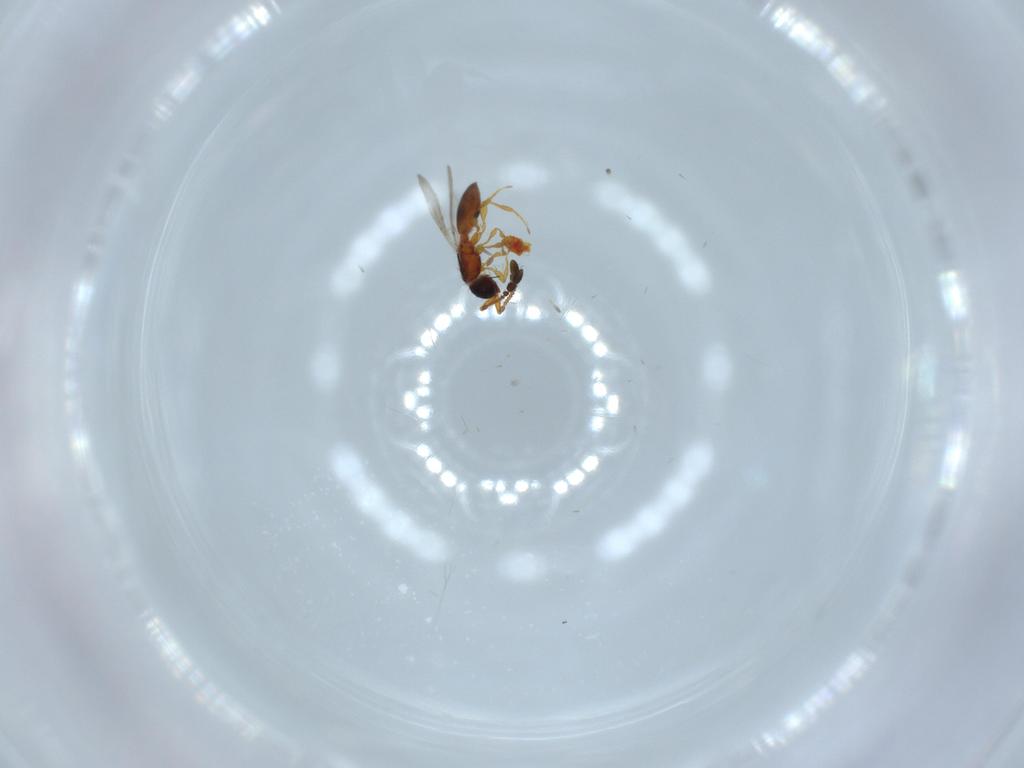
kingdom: Animalia
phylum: Arthropoda
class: Insecta
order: Hymenoptera
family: Diapriidae
